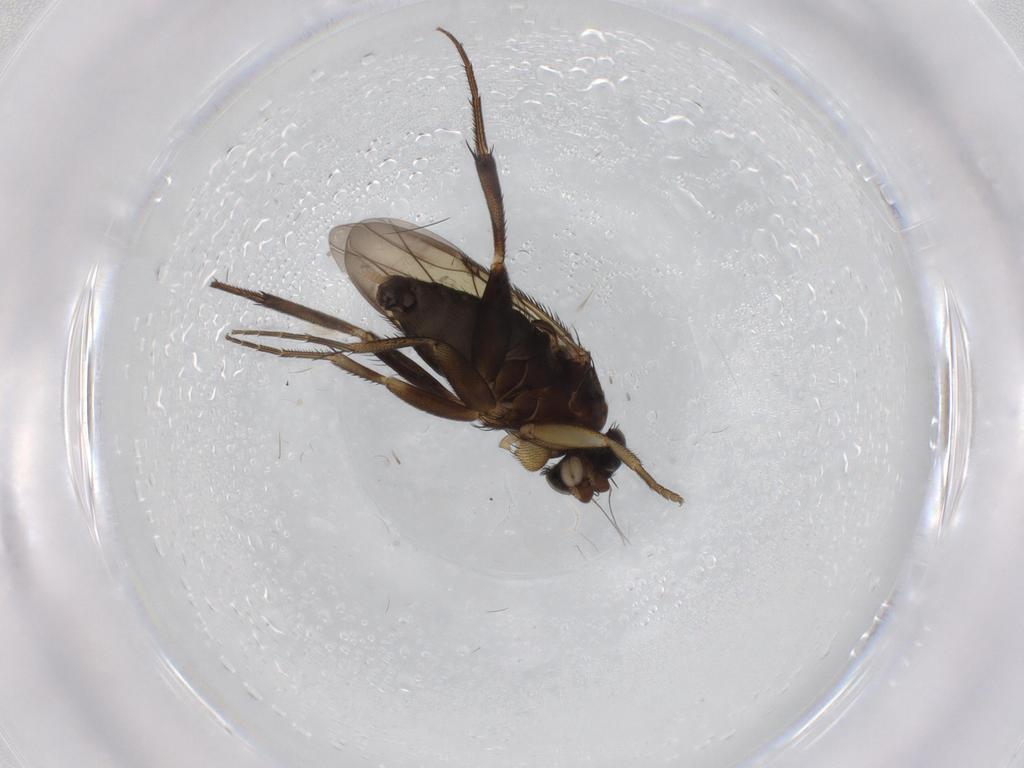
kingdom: Animalia
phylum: Arthropoda
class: Insecta
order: Diptera
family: Phoridae
